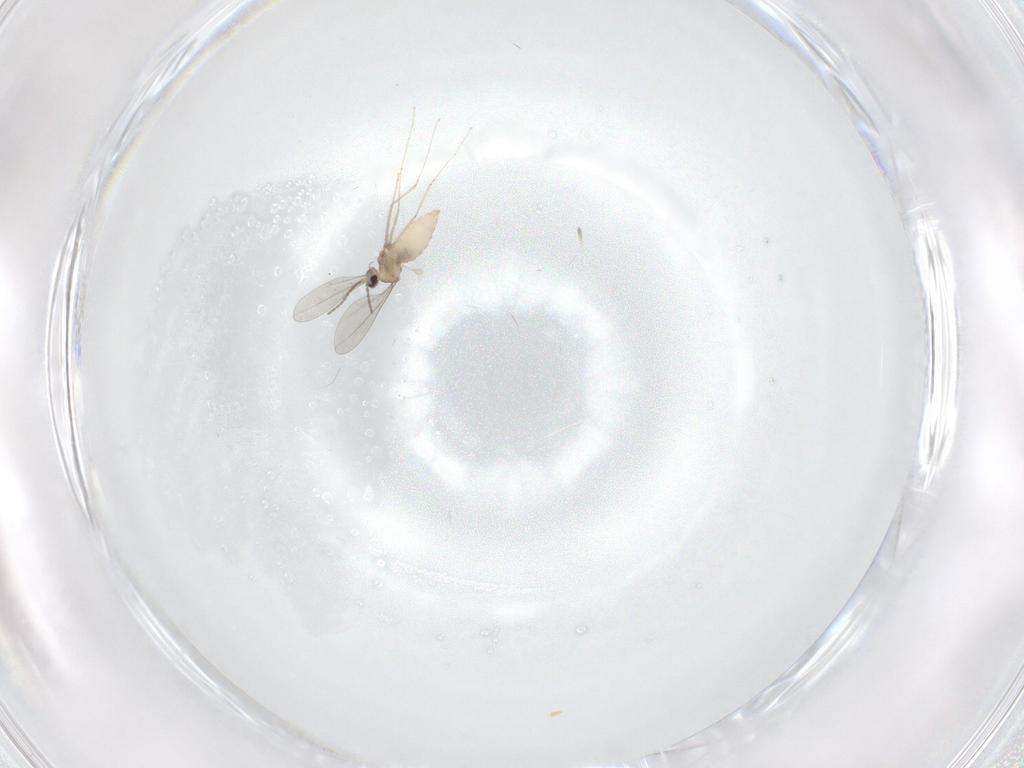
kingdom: Animalia
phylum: Arthropoda
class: Insecta
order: Diptera
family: Cecidomyiidae
